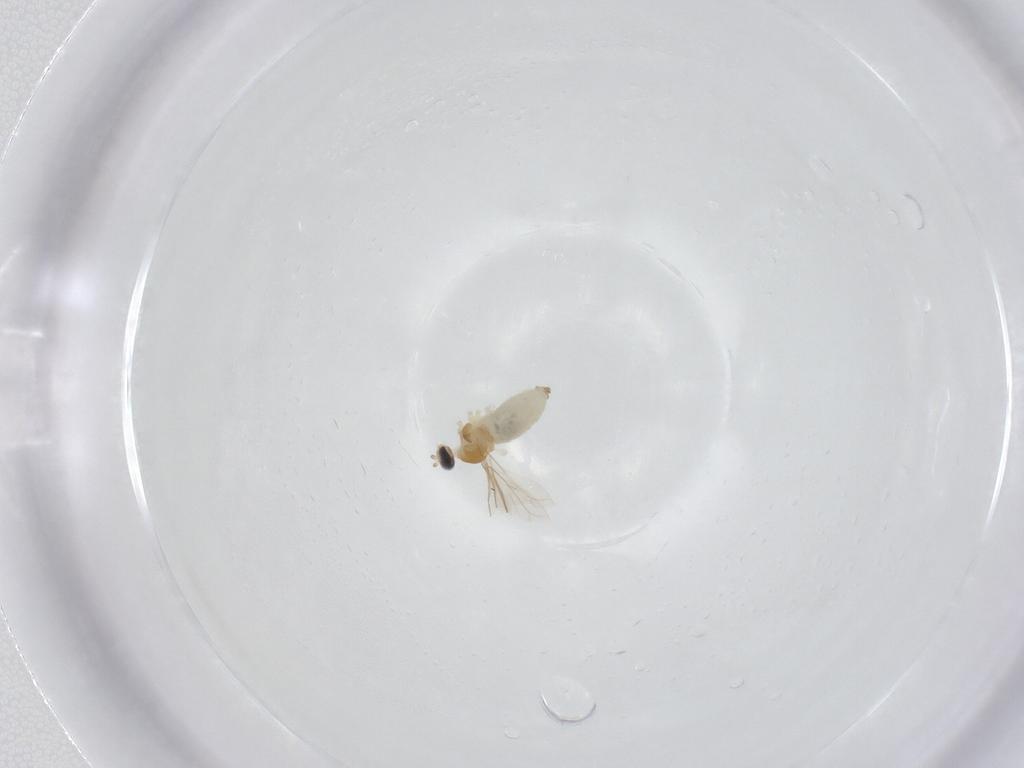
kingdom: Animalia
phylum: Arthropoda
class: Insecta
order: Diptera
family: Cecidomyiidae
